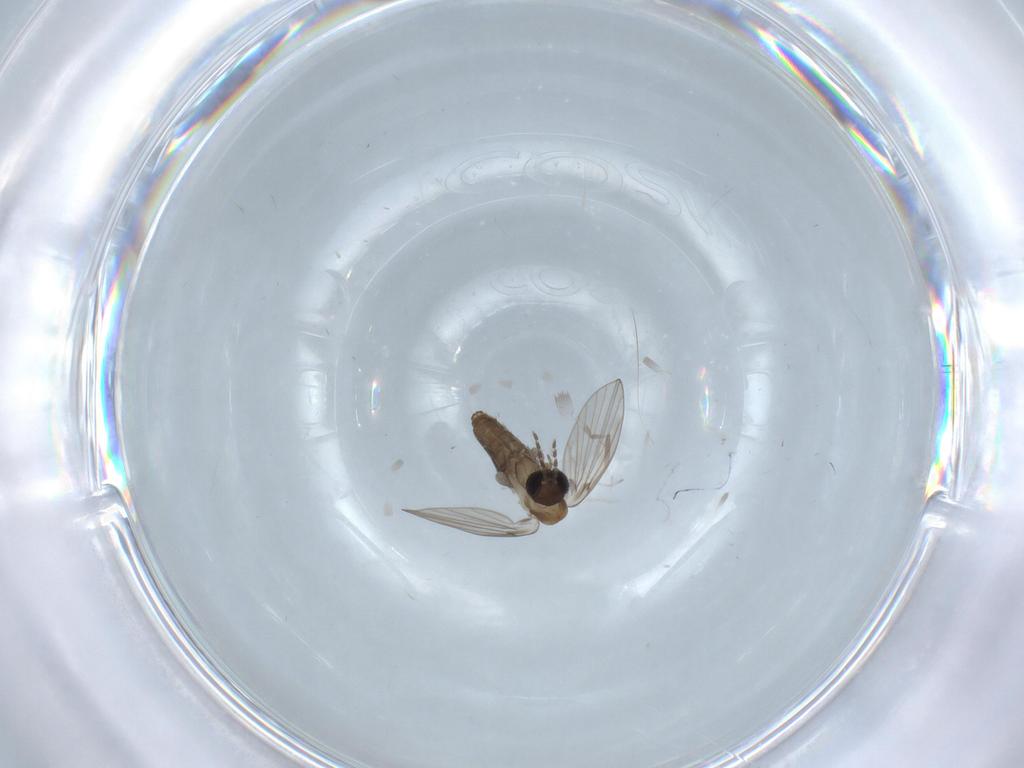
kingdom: Animalia
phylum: Arthropoda
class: Insecta
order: Diptera
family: Cecidomyiidae
